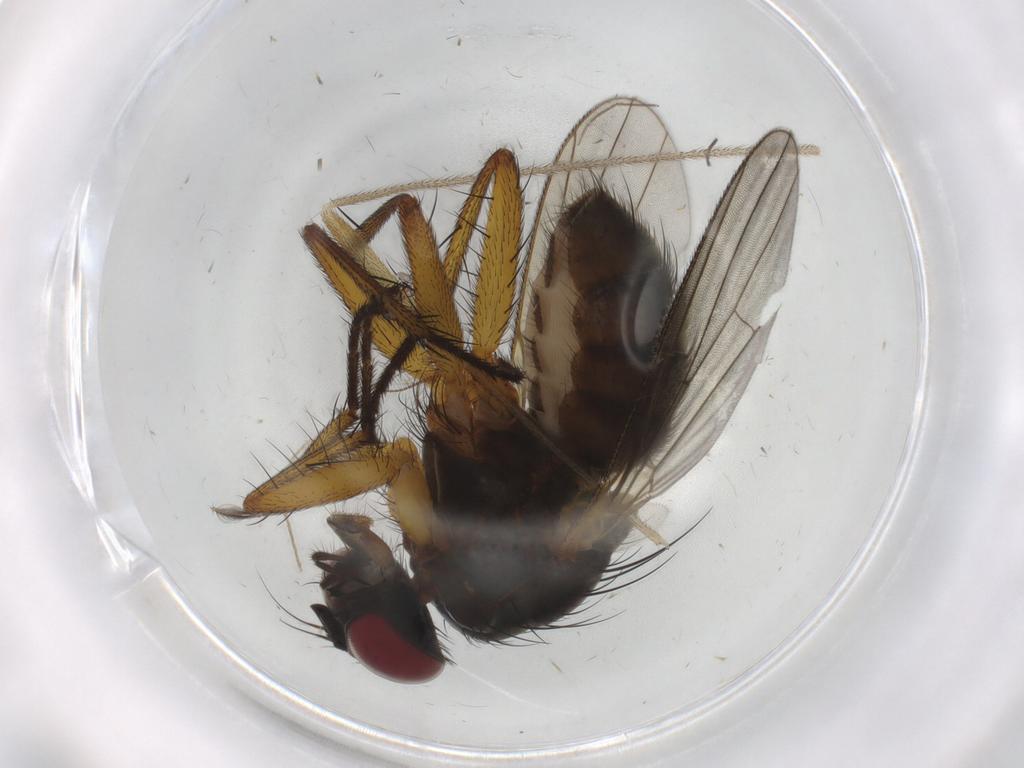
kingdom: Animalia
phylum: Arthropoda
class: Insecta
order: Diptera
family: Muscidae
